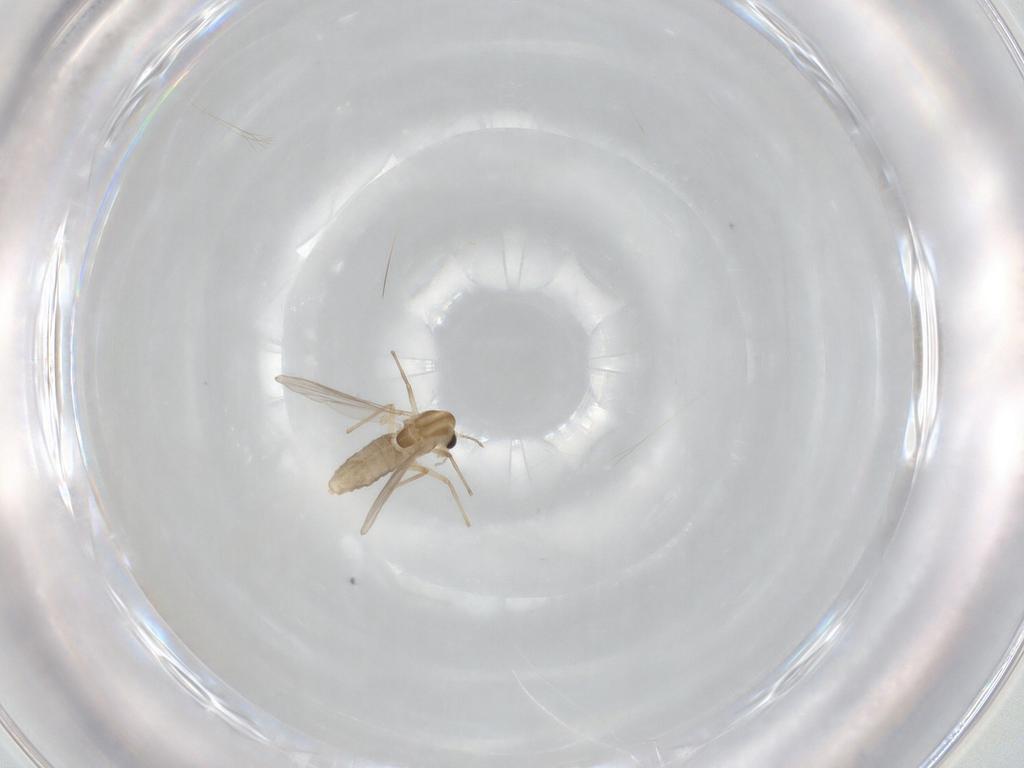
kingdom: Animalia
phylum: Arthropoda
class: Insecta
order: Diptera
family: Chironomidae
